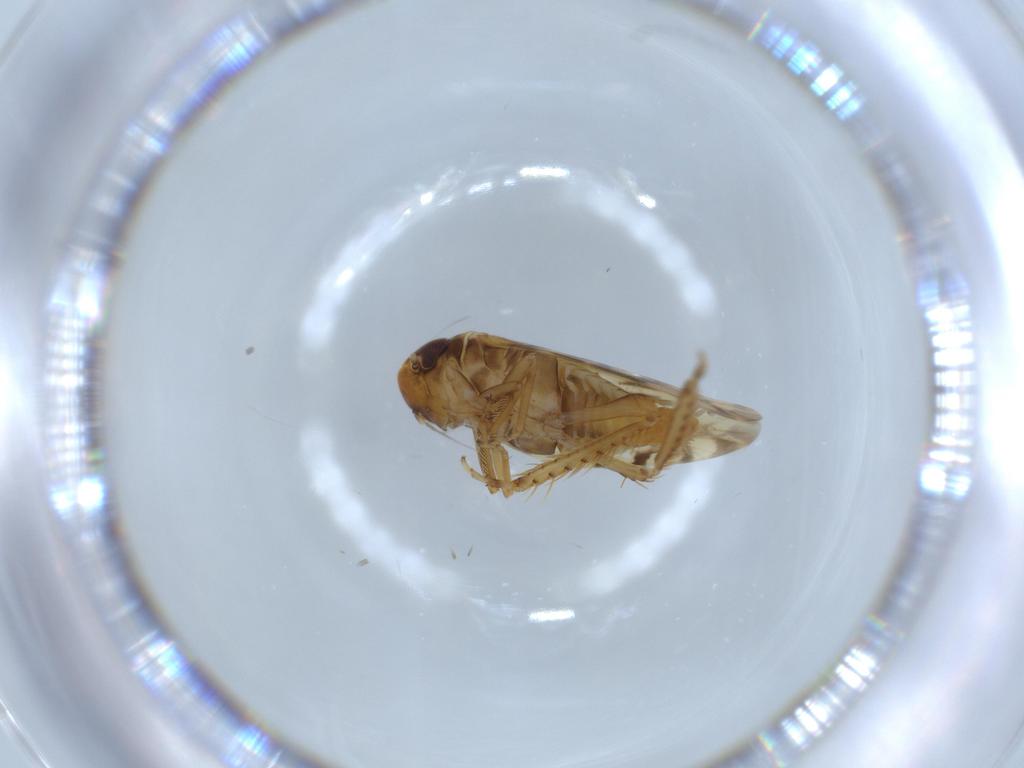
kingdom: Animalia
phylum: Arthropoda
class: Insecta
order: Hemiptera
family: Cicadellidae
